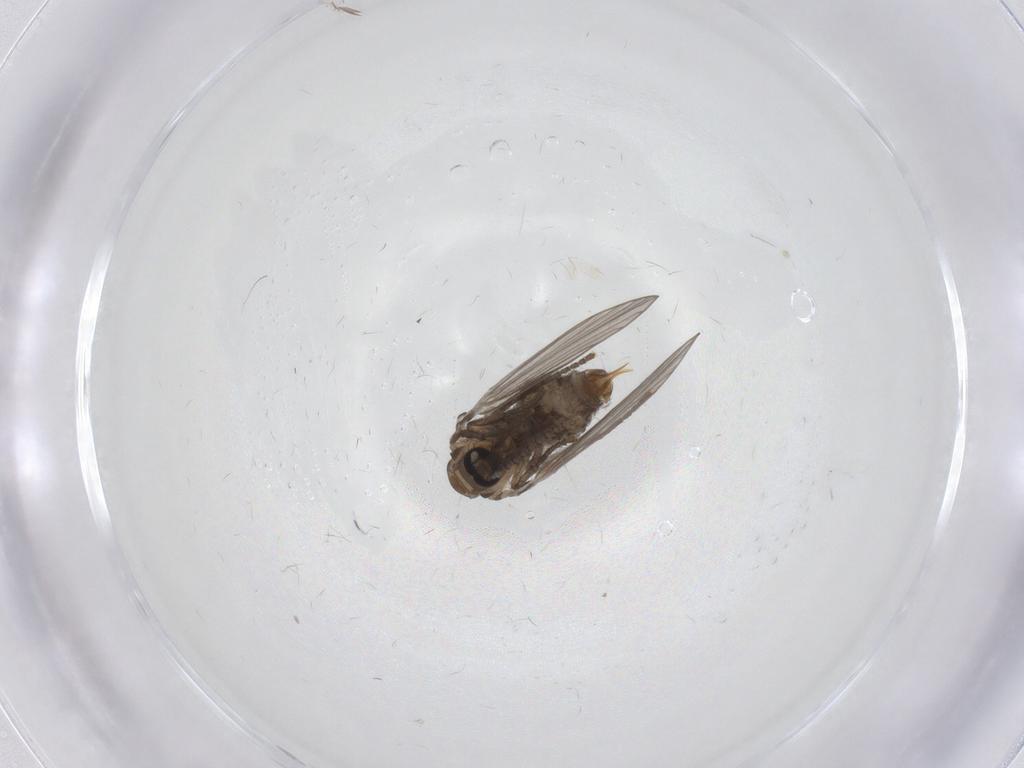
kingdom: Animalia
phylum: Arthropoda
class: Insecta
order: Diptera
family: Psychodidae
